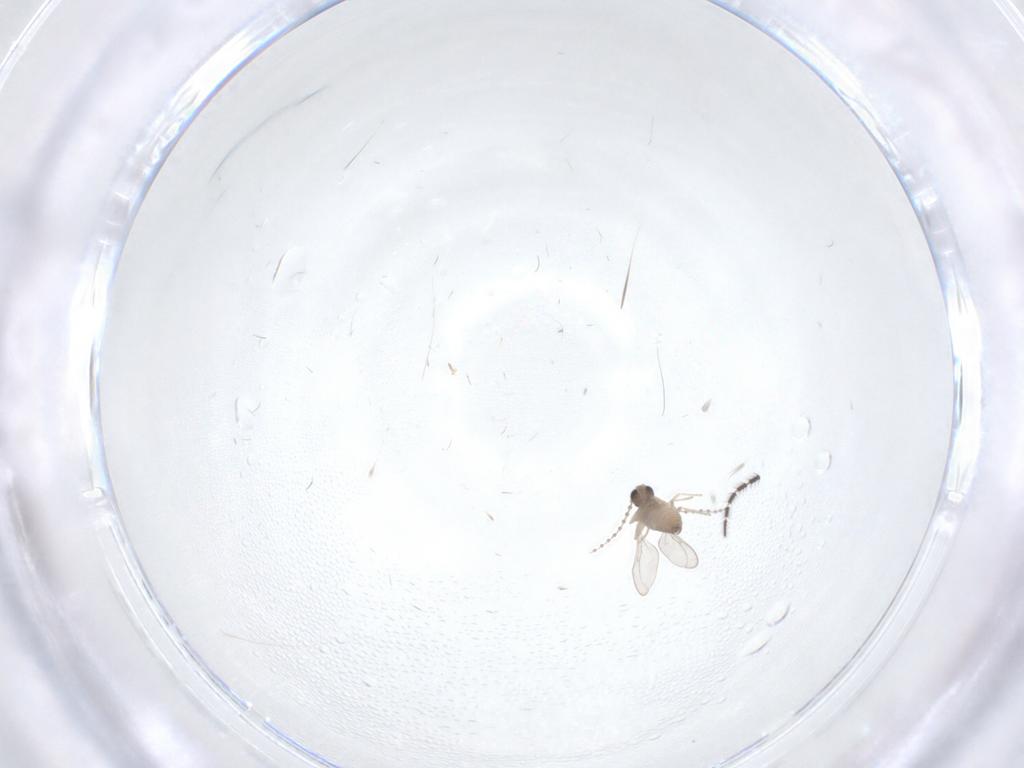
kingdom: Animalia
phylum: Arthropoda
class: Insecta
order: Diptera
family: Cecidomyiidae
